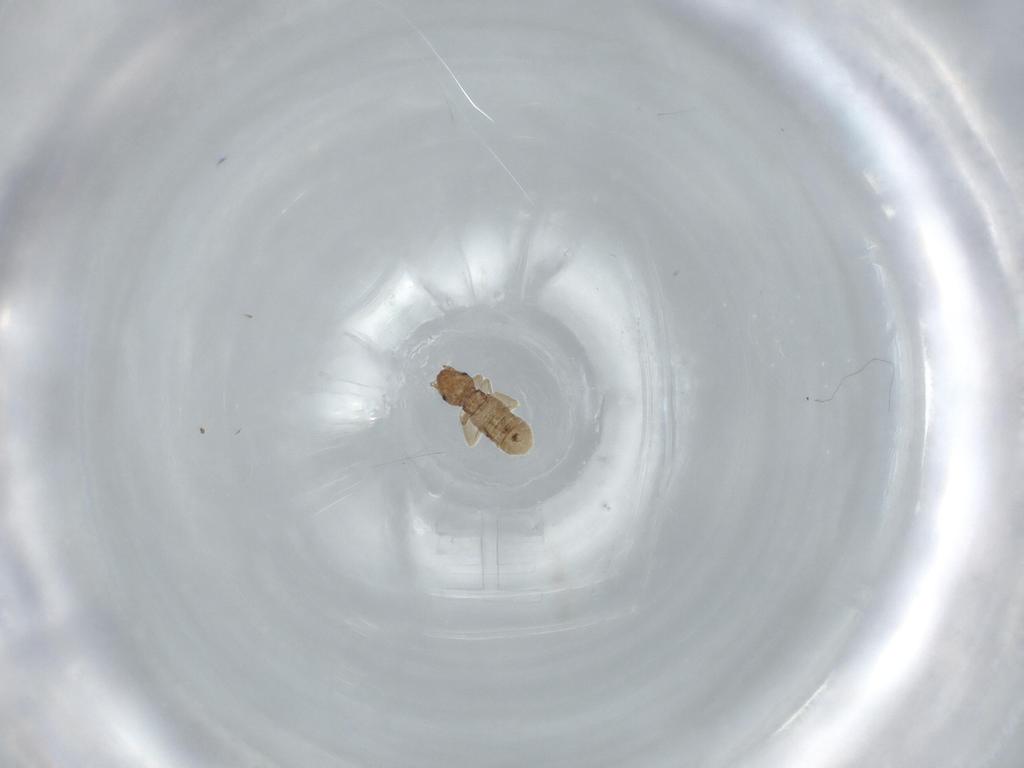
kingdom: Animalia
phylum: Arthropoda
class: Insecta
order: Psocodea
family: Liposcelididae
